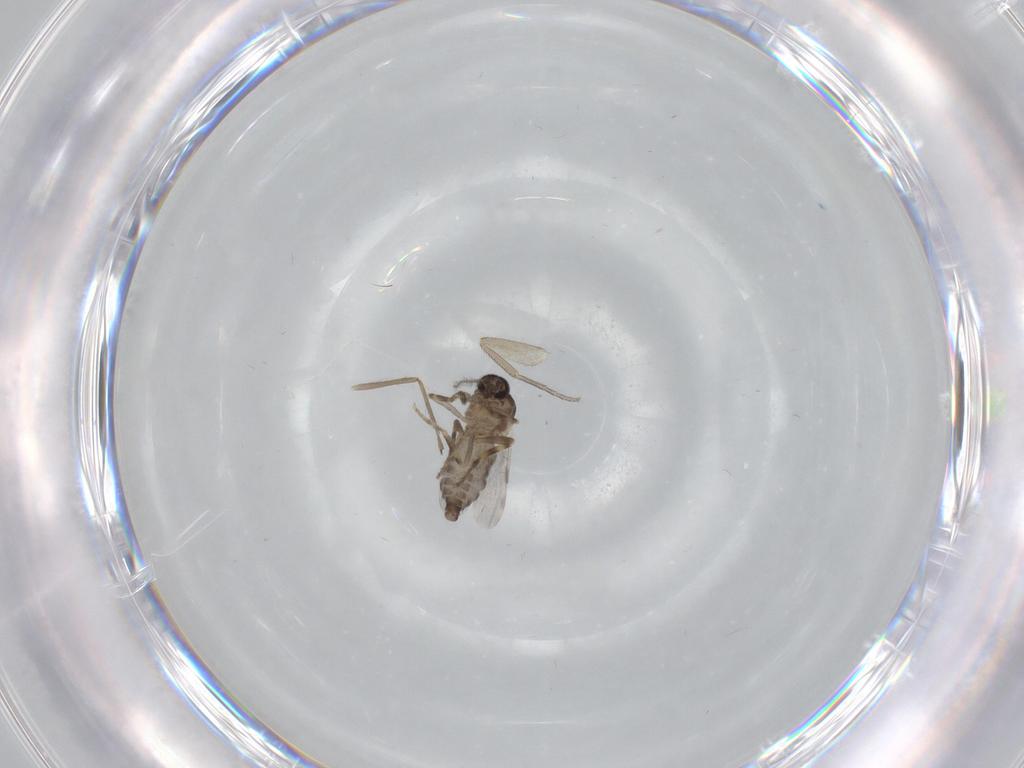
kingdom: Animalia
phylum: Arthropoda
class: Insecta
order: Diptera
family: Ceratopogonidae
